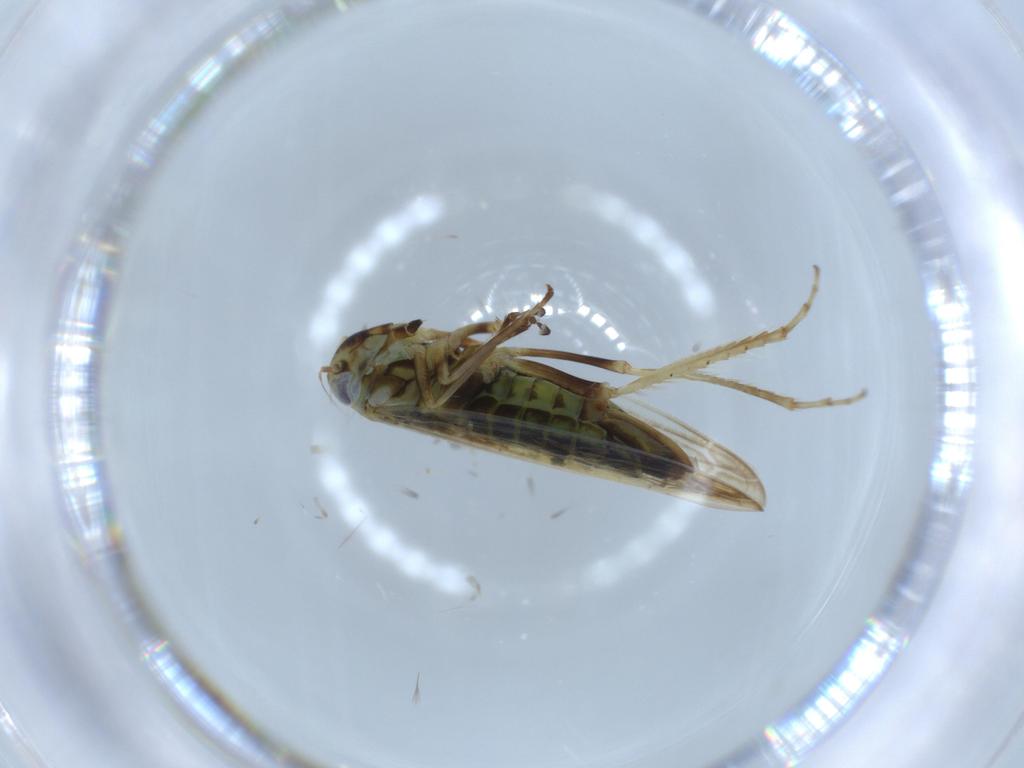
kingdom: Animalia
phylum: Arthropoda
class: Insecta
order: Hemiptera
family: Cicadellidae
